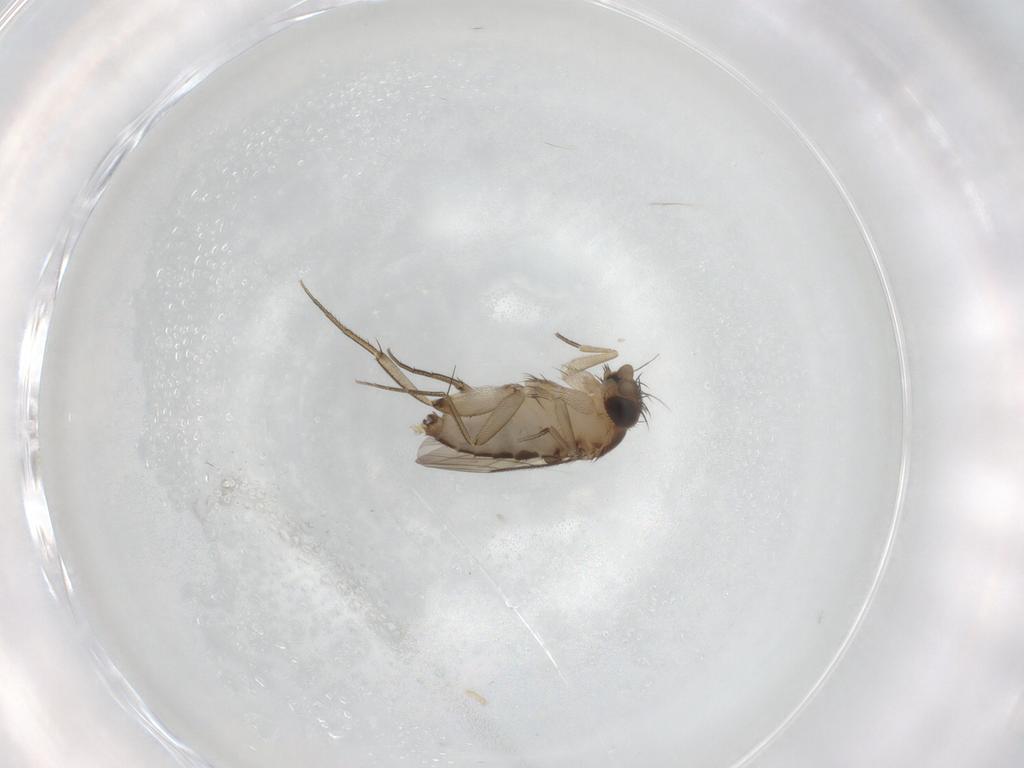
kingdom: Animalia
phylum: Arthropoda
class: Insecta
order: Diptera
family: Phoridae
